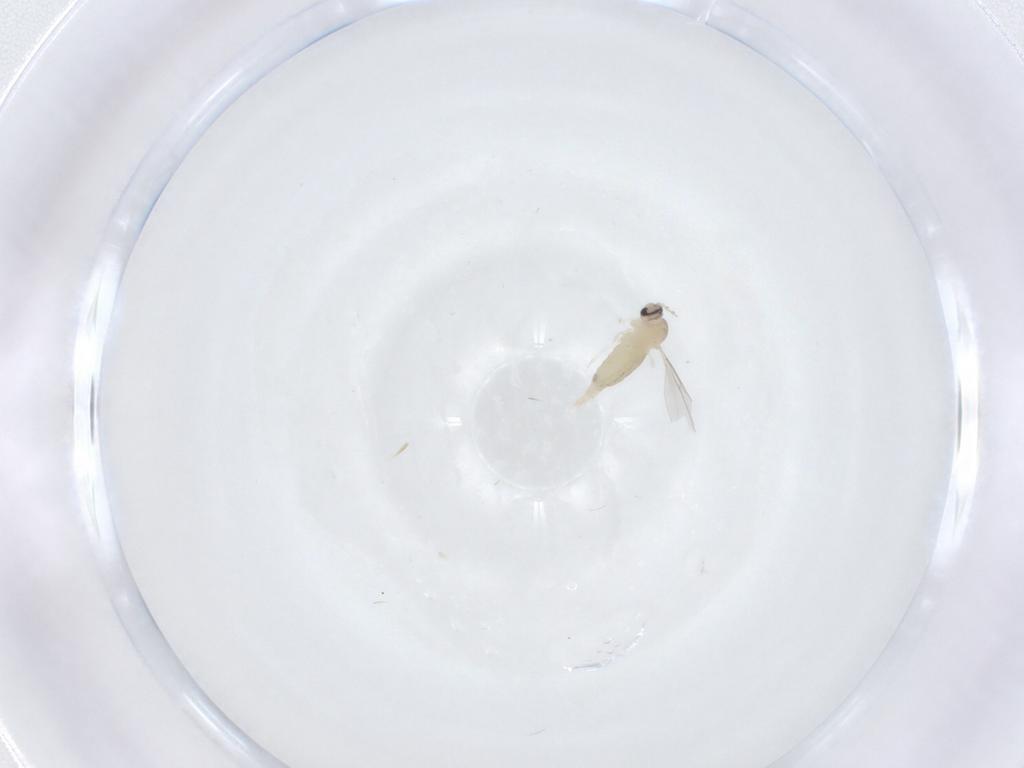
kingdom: Animalia
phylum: Arthropoda
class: Insecta
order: Diptera
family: Cecidomyiidae
